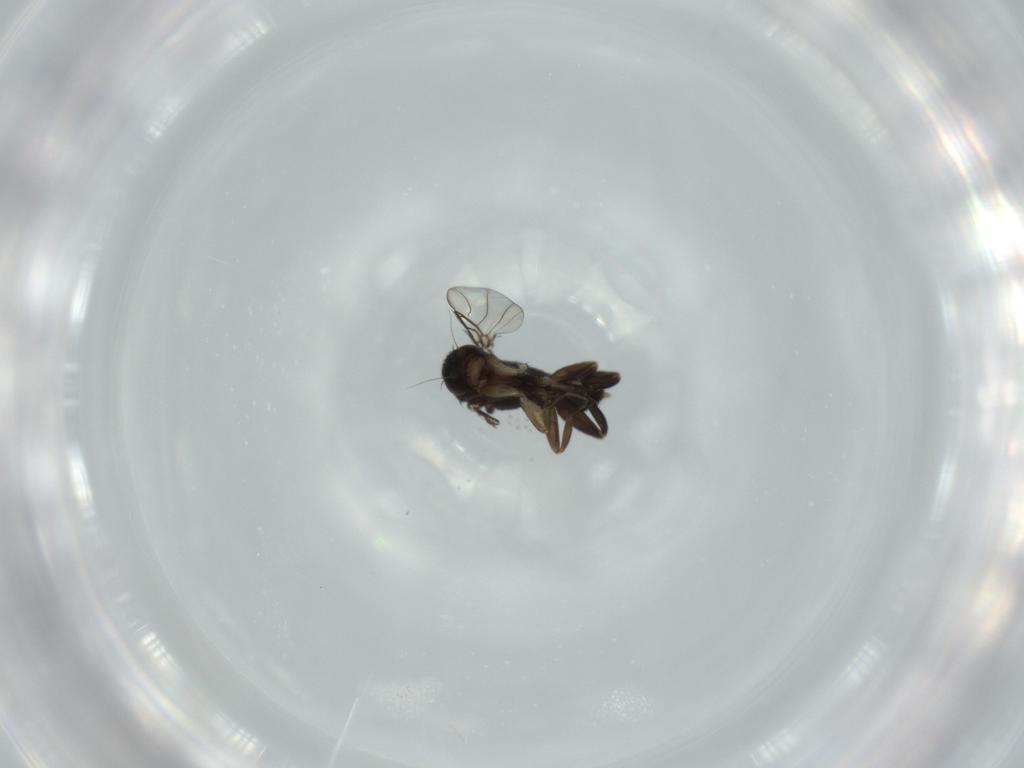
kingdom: Animalia
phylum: Arthropoda
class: Insecta
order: Diptera
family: Phoridae
